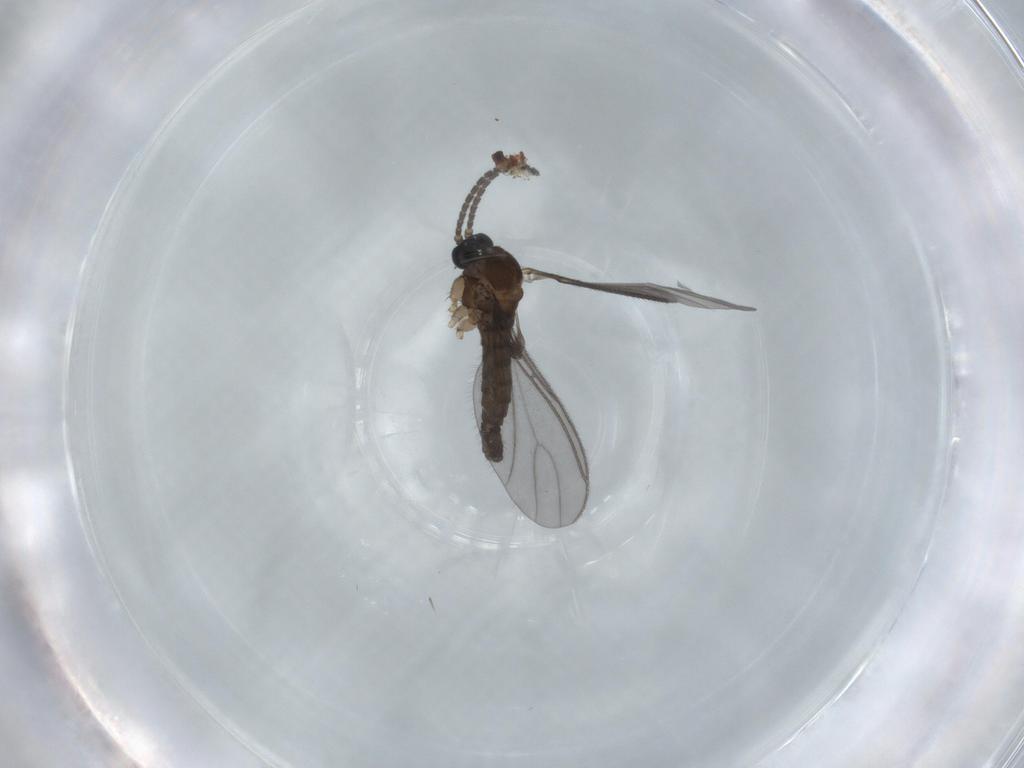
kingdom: Animalia
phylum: Arthropoda
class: Insecta
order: Diptera
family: Sciaridae
